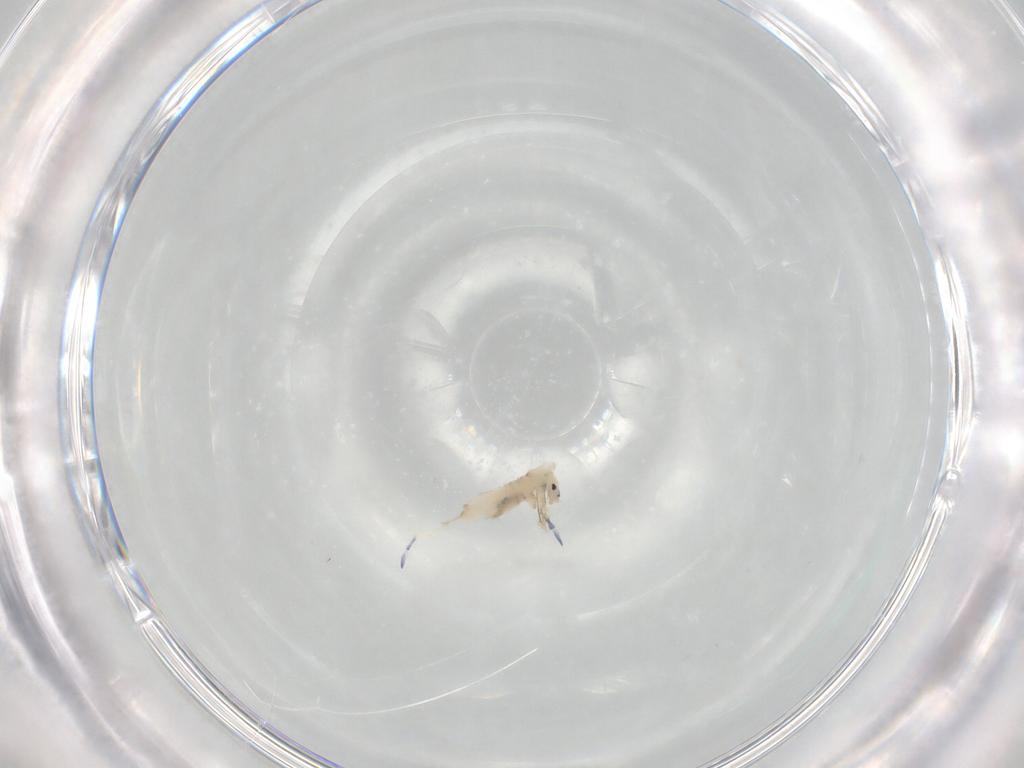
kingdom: Animalia
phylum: Arthropoda
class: Collembola
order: Entomobryomorpha
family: Entomobryidae
